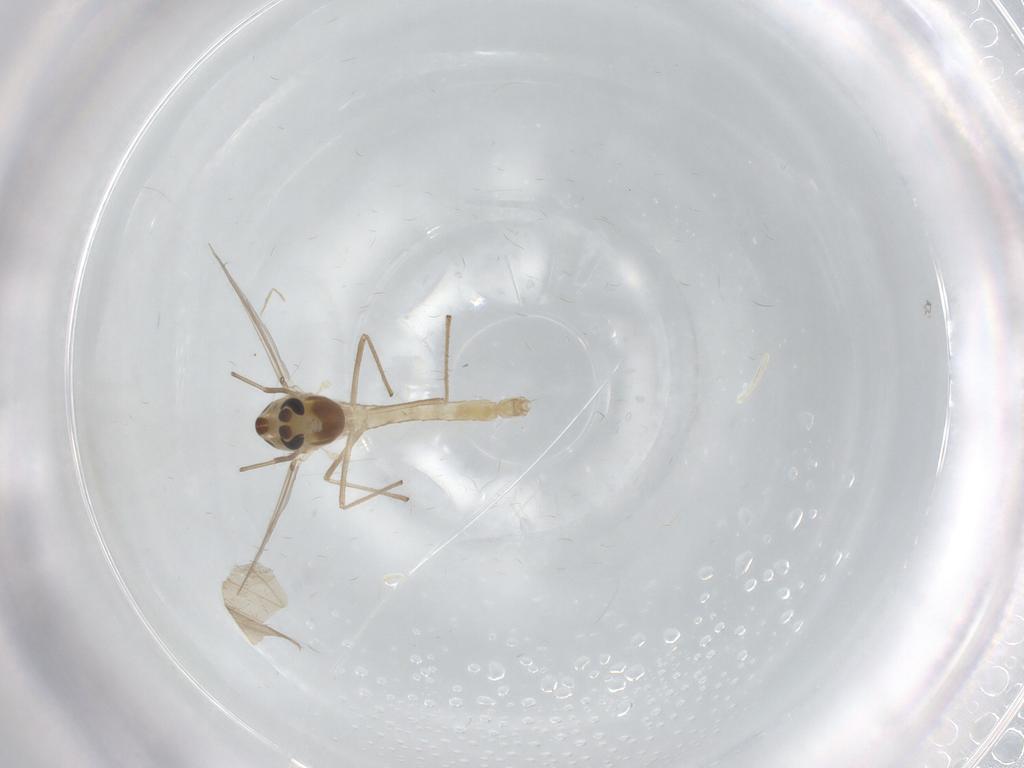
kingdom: Animalia
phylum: Arthropoda
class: Insecta
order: Diptera
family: Chironomidae
